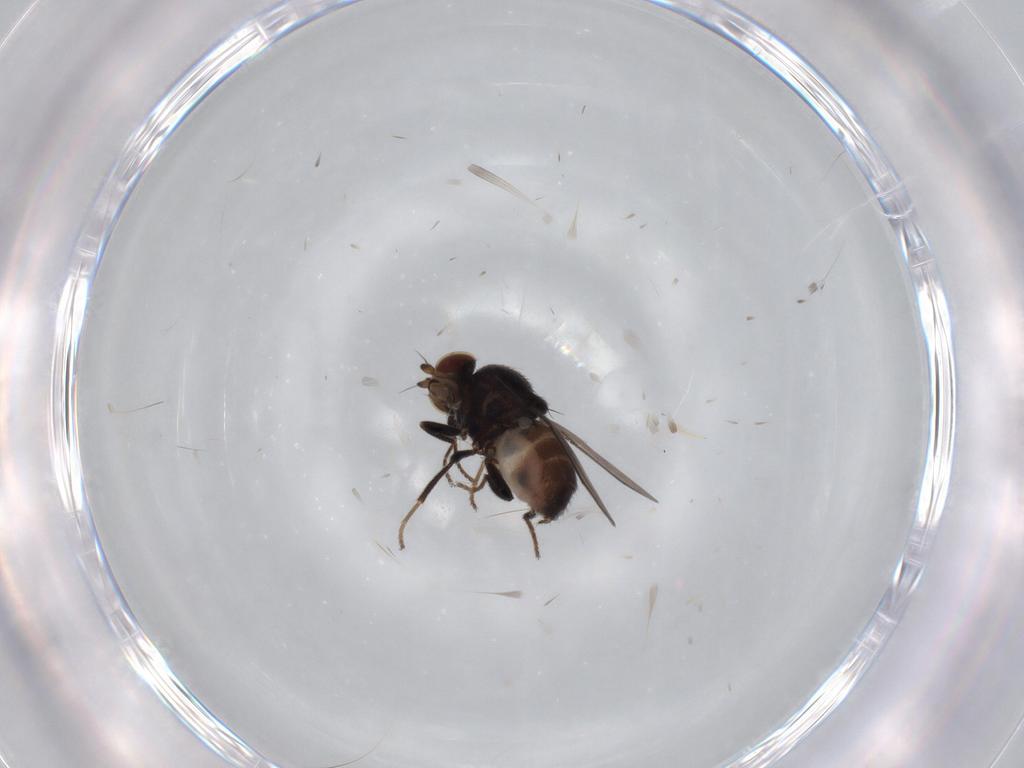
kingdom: Animalia
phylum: Arthropoda
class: Insecta
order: Diptera
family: Chloropidae
